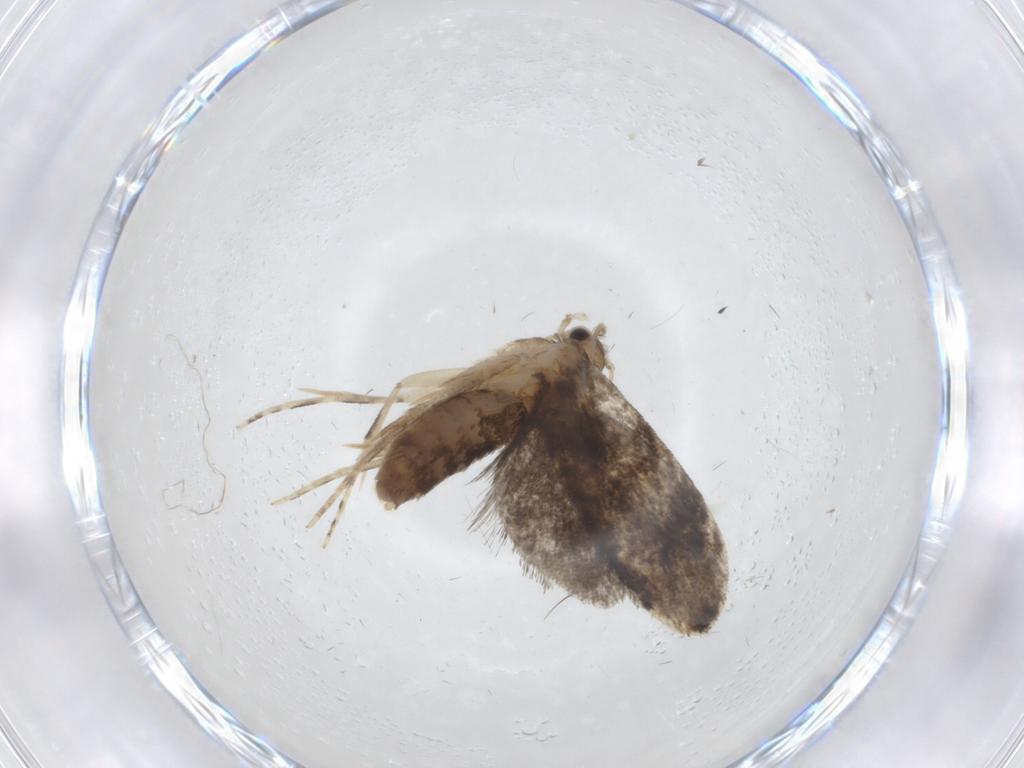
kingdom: Animalia
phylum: Arthropoda
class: Insecta
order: Lepidoptera
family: Tineidae
